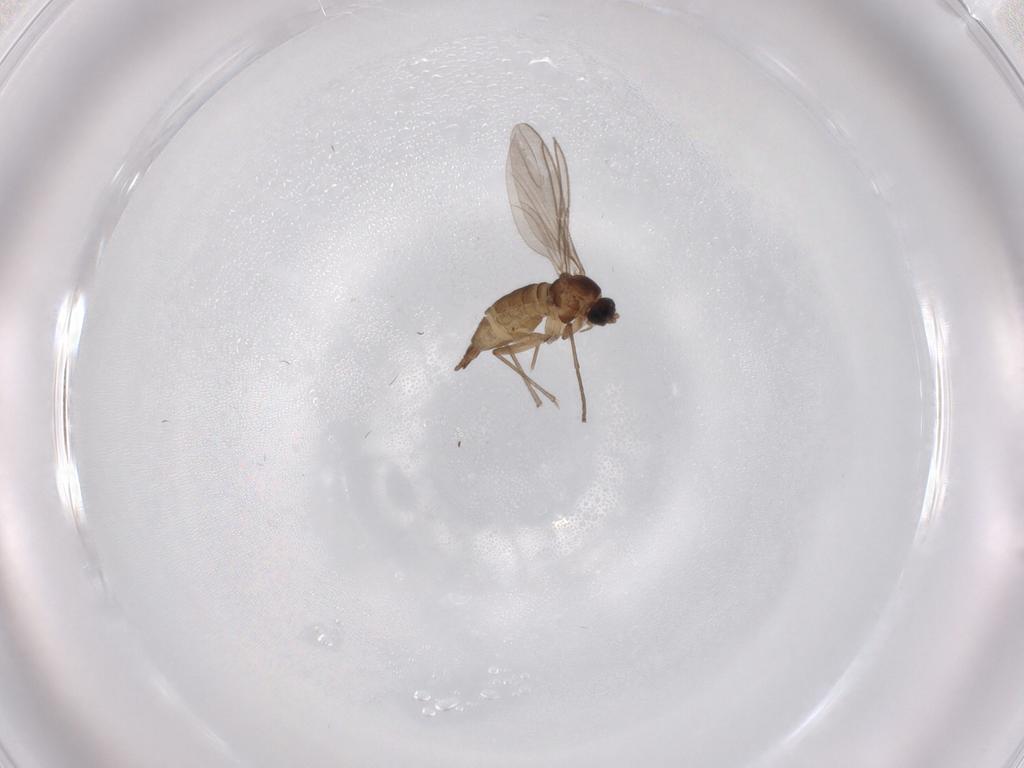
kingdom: Animalia
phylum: Arthropoda
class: Insecta
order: Diptera
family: Sciaridae
